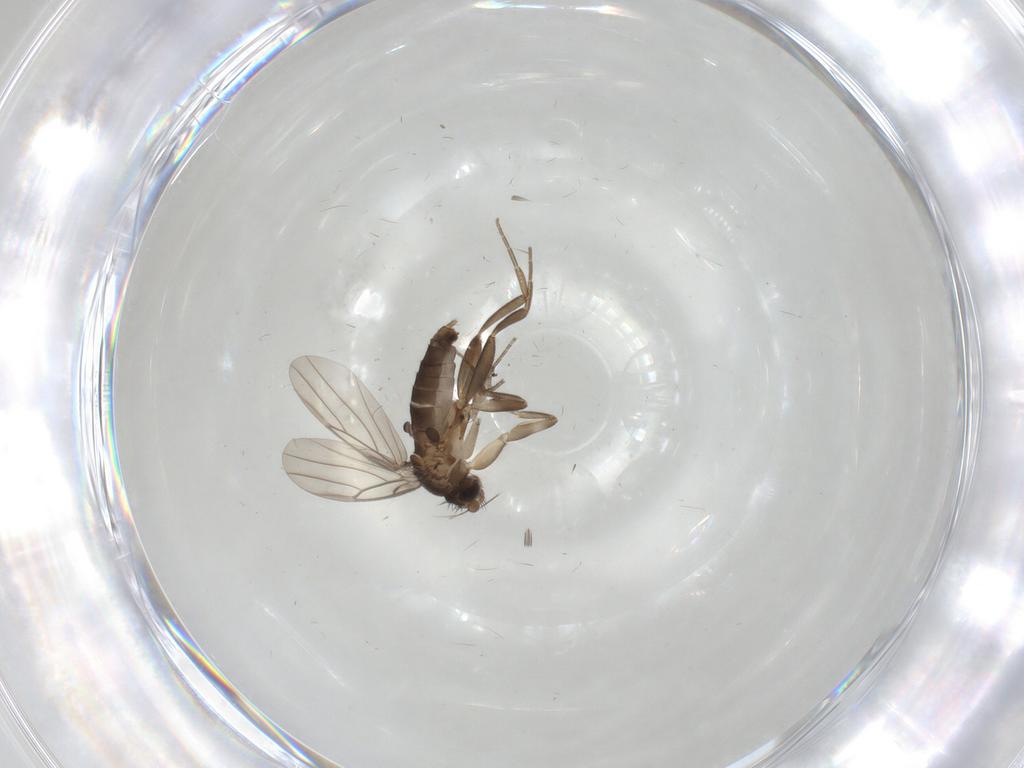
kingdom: Animalia
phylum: Arthropoda
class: Insecta
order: Diptera
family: Phoridae
